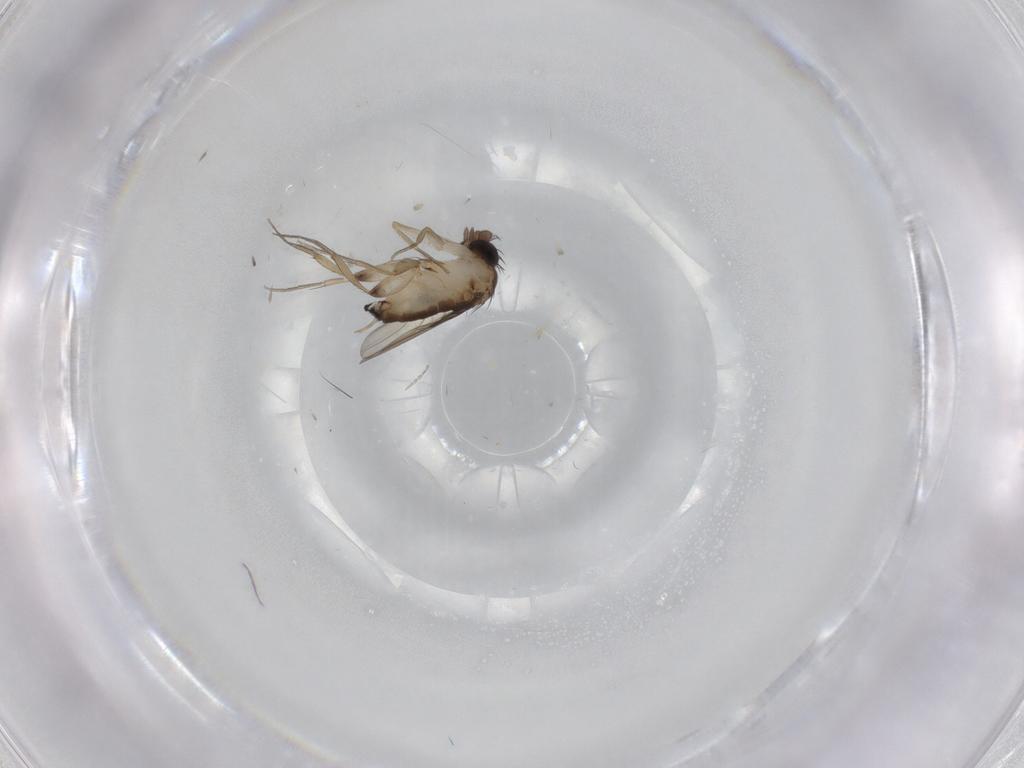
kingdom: Animalia
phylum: Arthropoda
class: Insecta
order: Diptera
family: Phoridae
